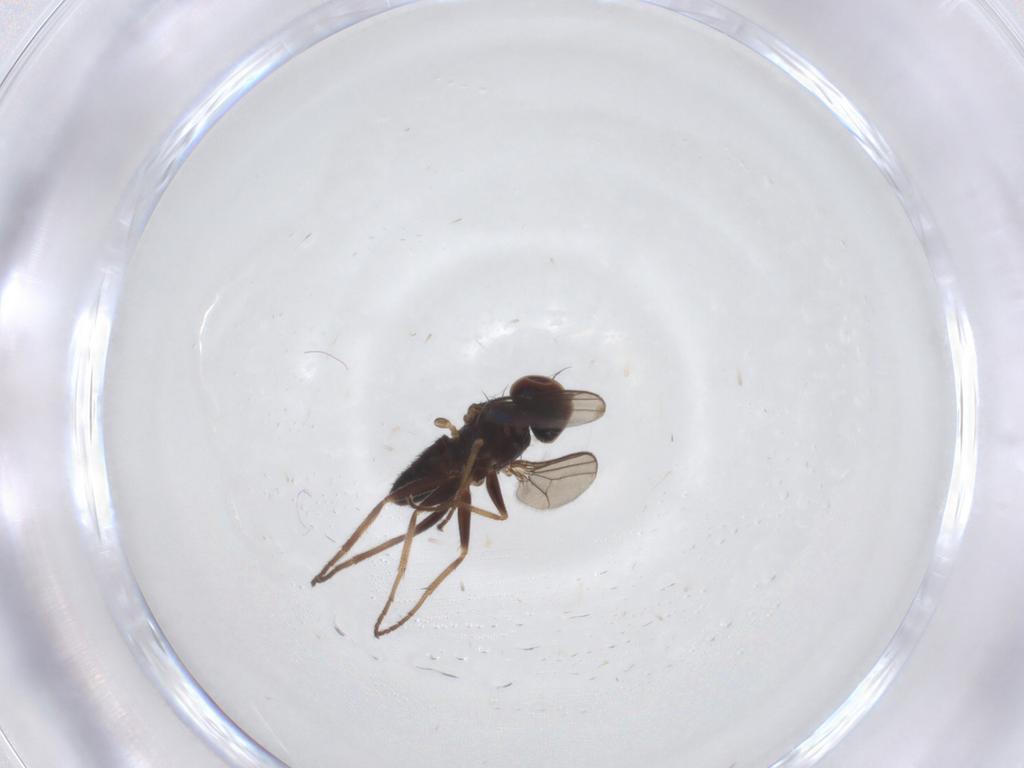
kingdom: Animalia
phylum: Arthropoda
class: Insecta
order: Diptera
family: Dolichopodidae
